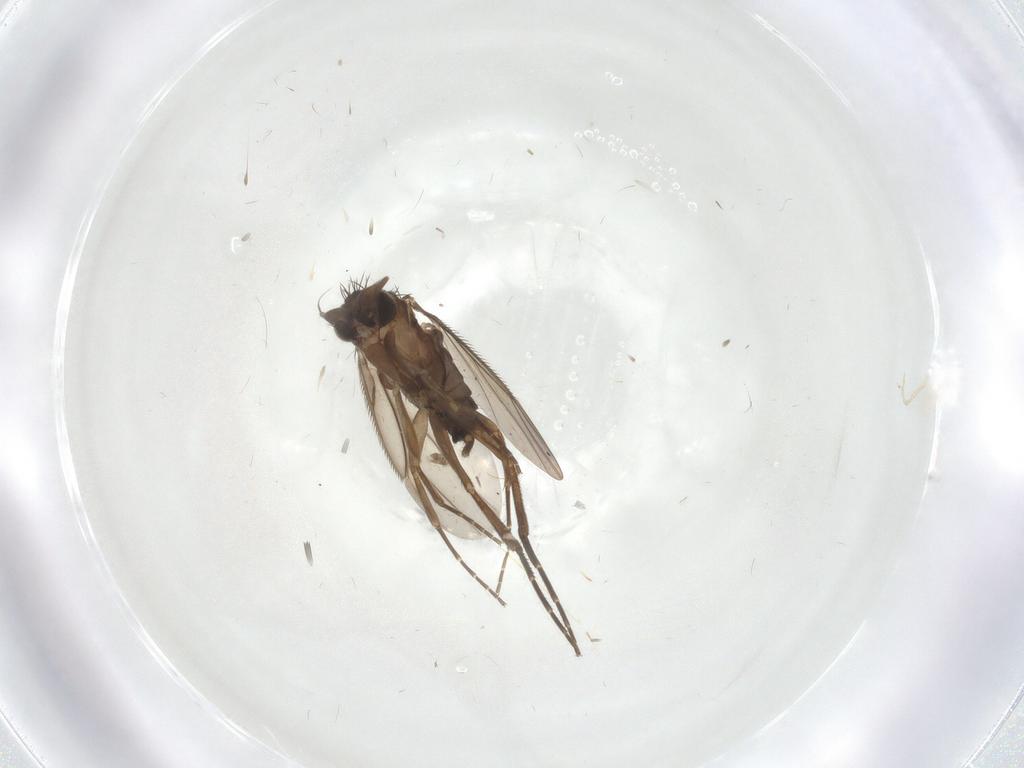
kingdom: Animalia
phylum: Arthropoda
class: Insecta
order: Diptera
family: Phoridae
